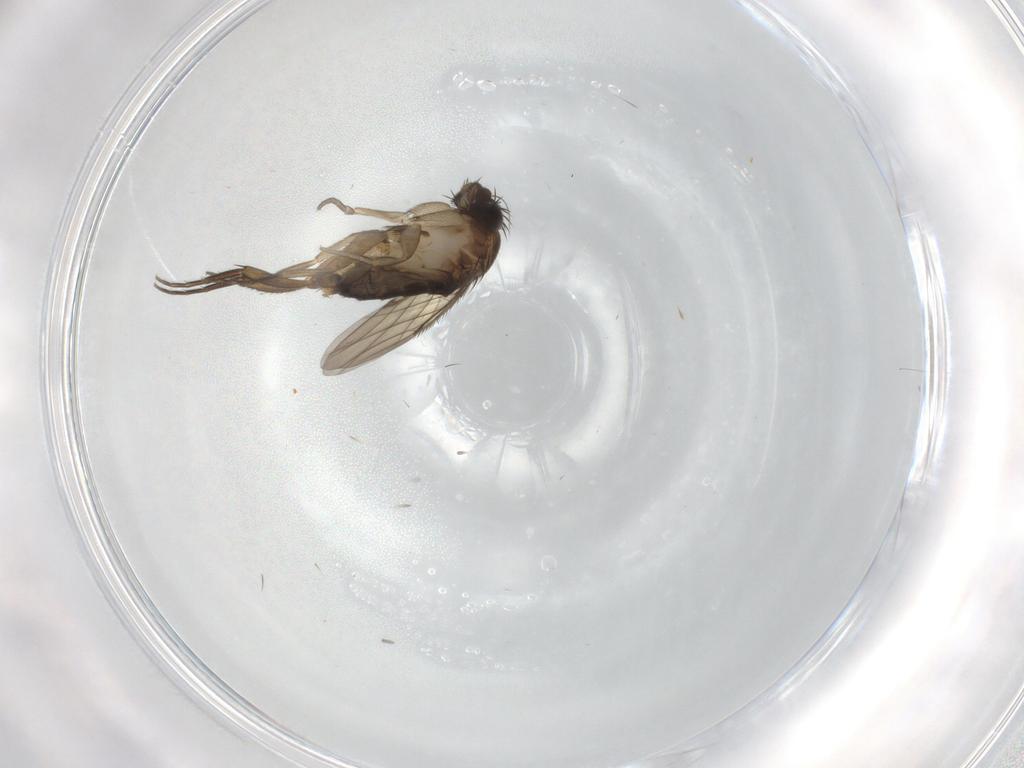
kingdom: Animalia
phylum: Arthropoda
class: Insecta
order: Diptera
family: Phoridae
